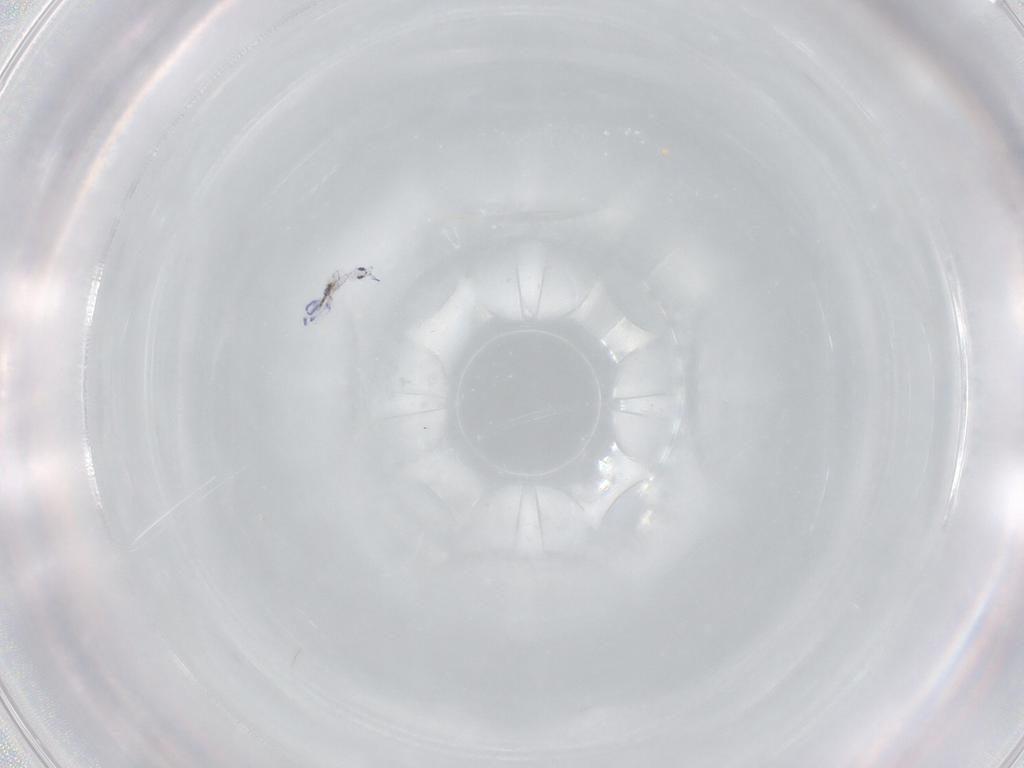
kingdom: Animalia
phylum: Arthropoda
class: Collembola
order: Entomobryomorpha
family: Entomobryidae
